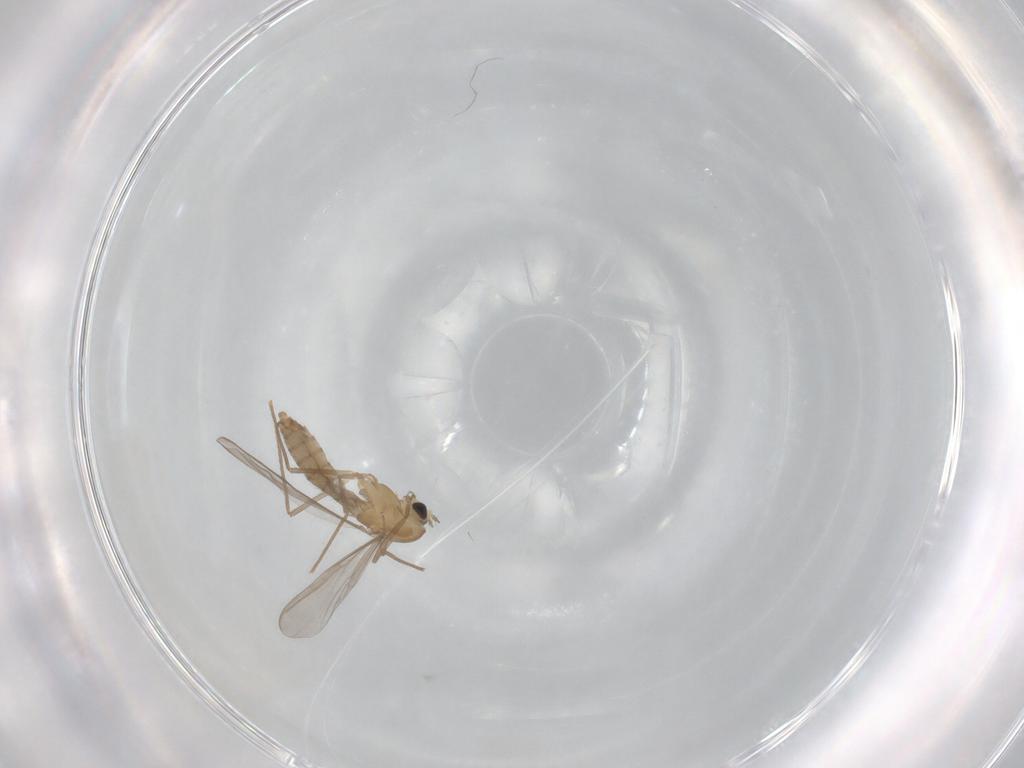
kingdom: Animalia
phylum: Arthropoda
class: Insecta
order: Diptera
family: Chironomidae
